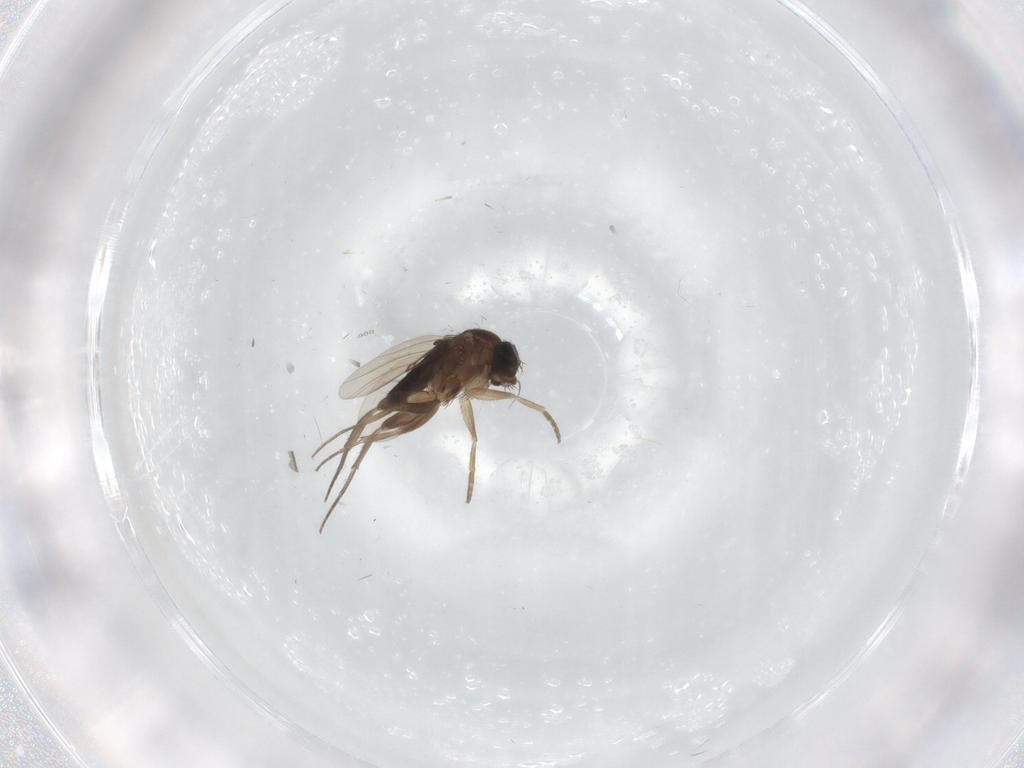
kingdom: Animalia
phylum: Arthropoda
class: Insecta
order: Diptera
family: Phoridae
